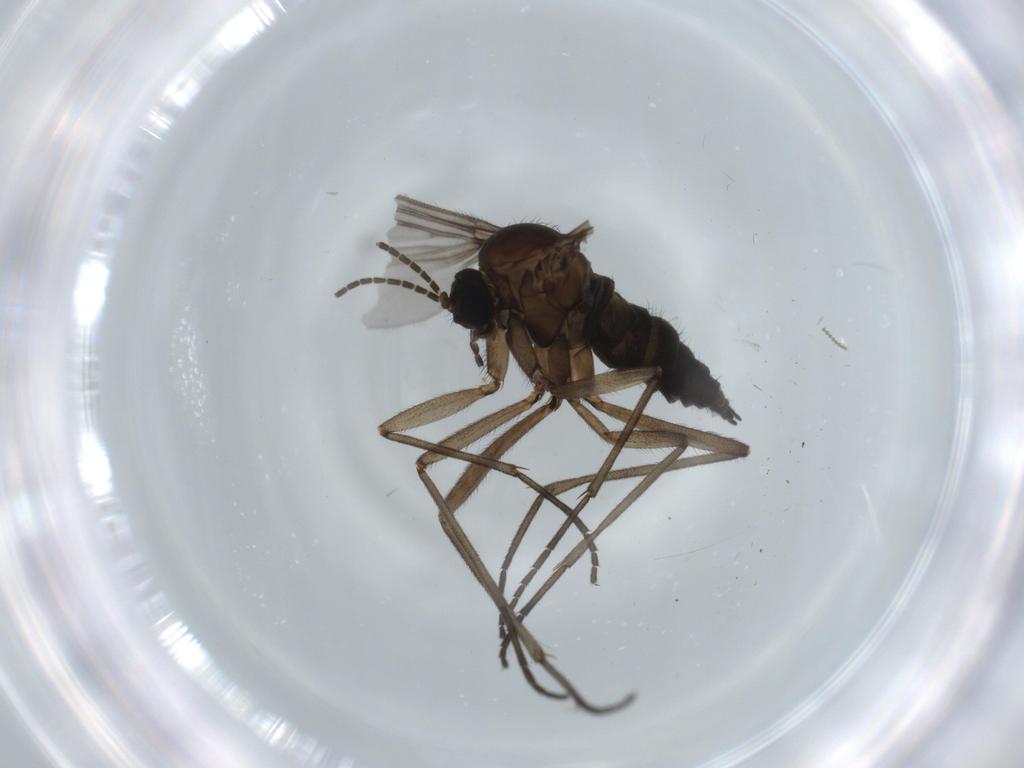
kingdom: Animalia
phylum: Arthropoda
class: Insecta
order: Diptera
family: Sciaridae
